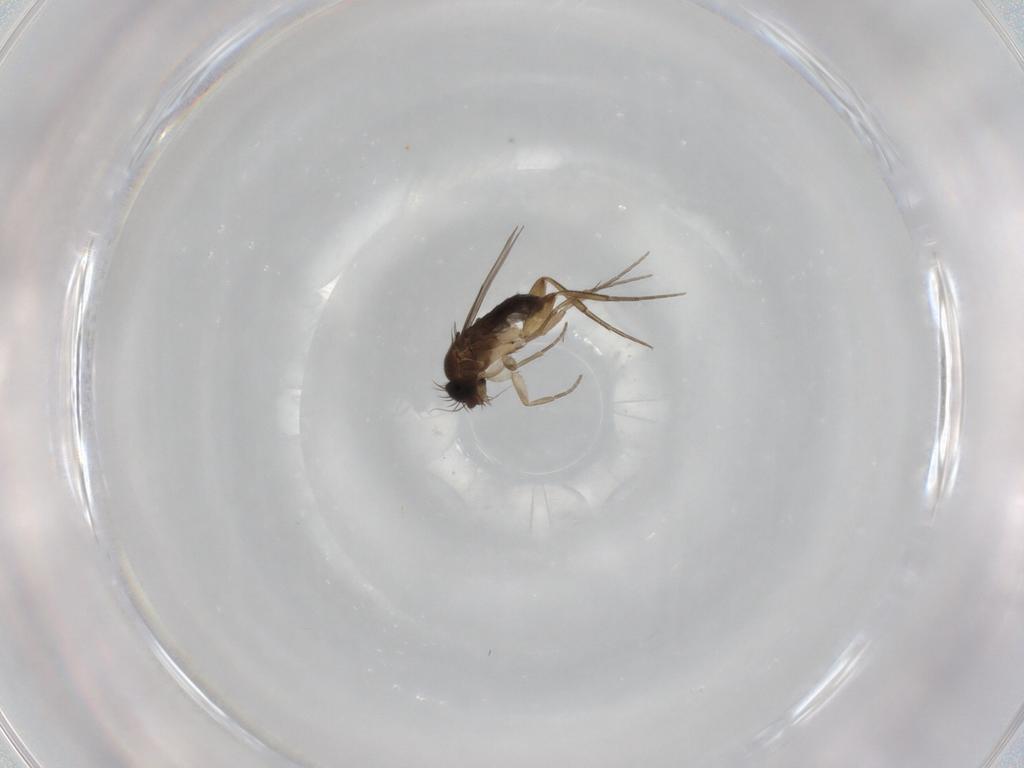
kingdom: Animalia
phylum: Arthropoda
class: Insecta
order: Diptera
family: Phoridae
